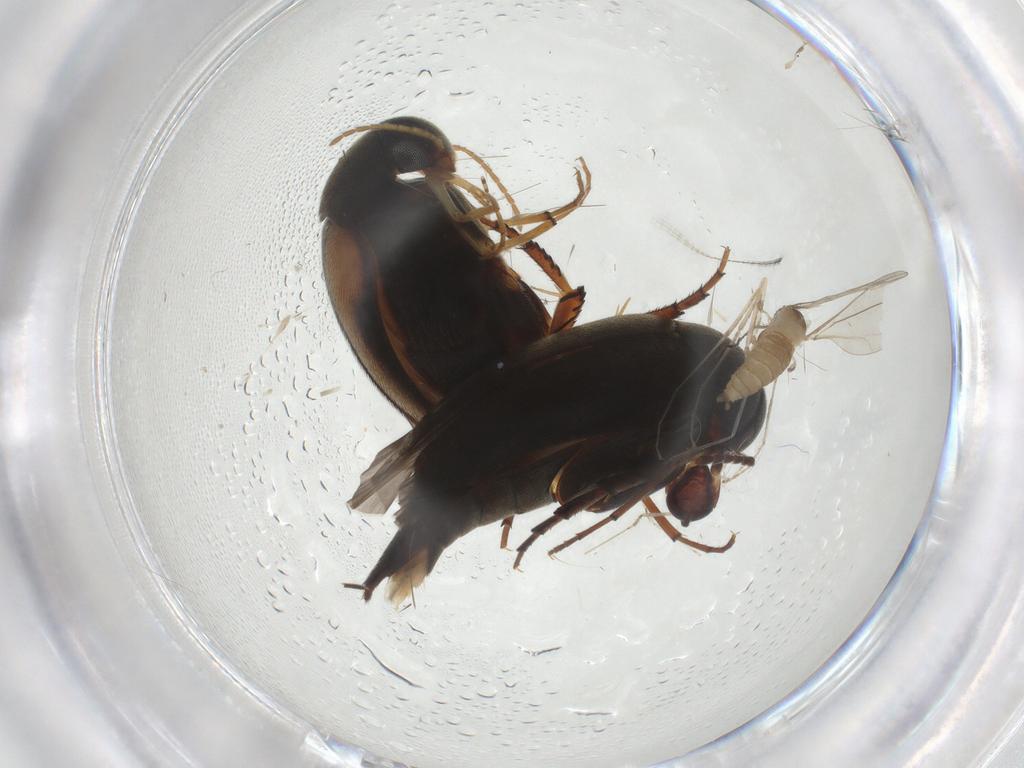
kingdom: Animalia
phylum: Arthropoda
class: Insecta
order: Coleoptera
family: Mordellidae
